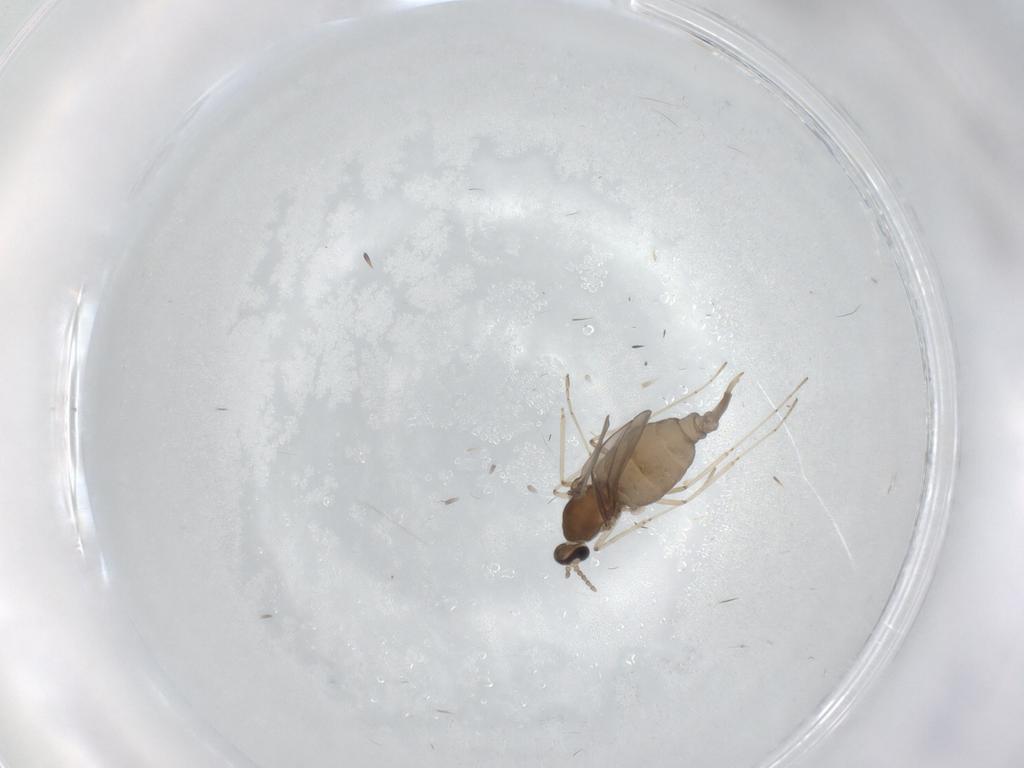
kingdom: Animalia
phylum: Arthropoda
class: Insecta
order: Diptera
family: Cecidomyiidae
